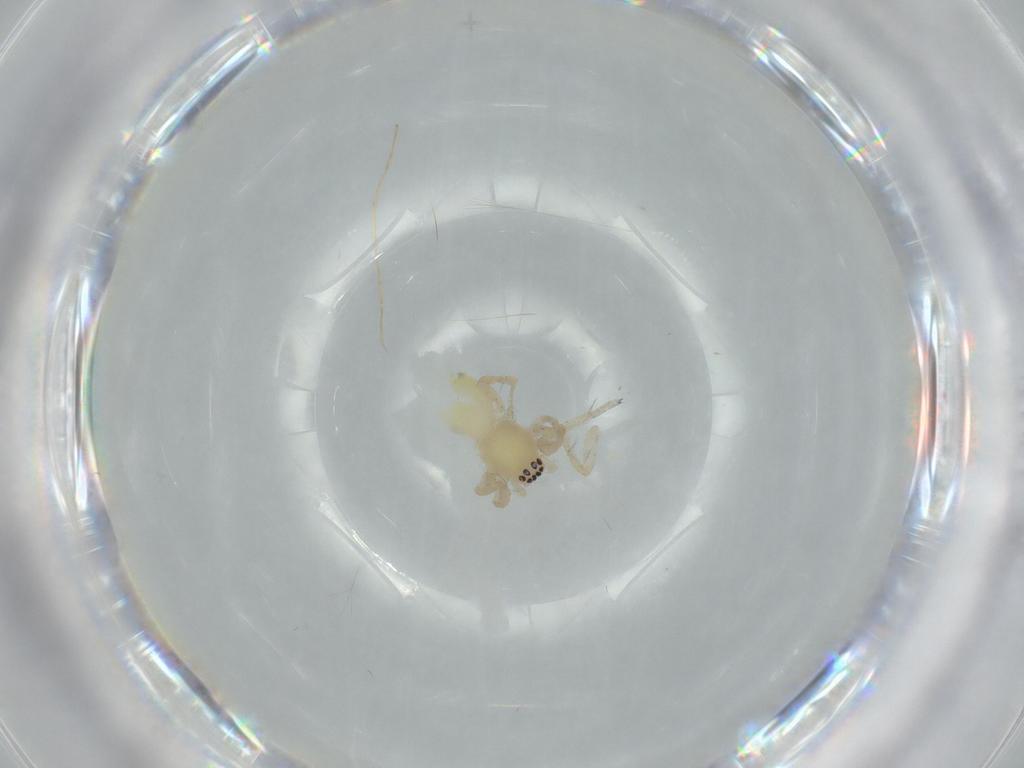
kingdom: Animalia
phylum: Arthropoda
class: Arachnida
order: Araneae
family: Anyphaenidae
